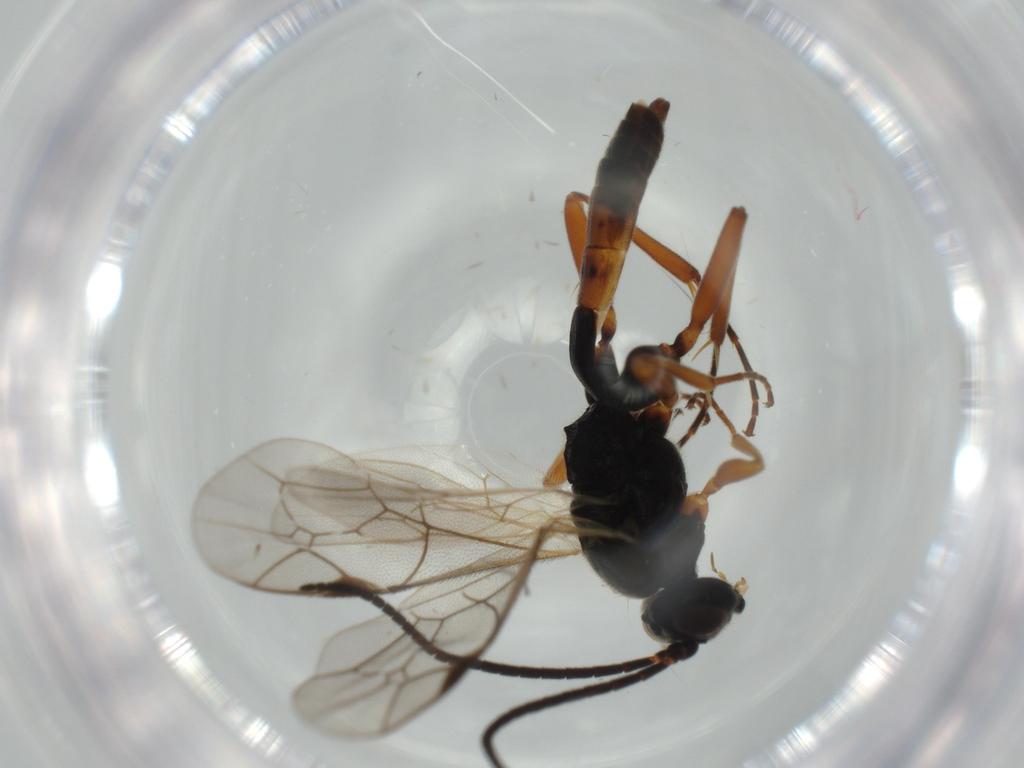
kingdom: Animalia
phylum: Arthropoda
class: Insecta
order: Hymenoptera
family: Ichneumonidae
